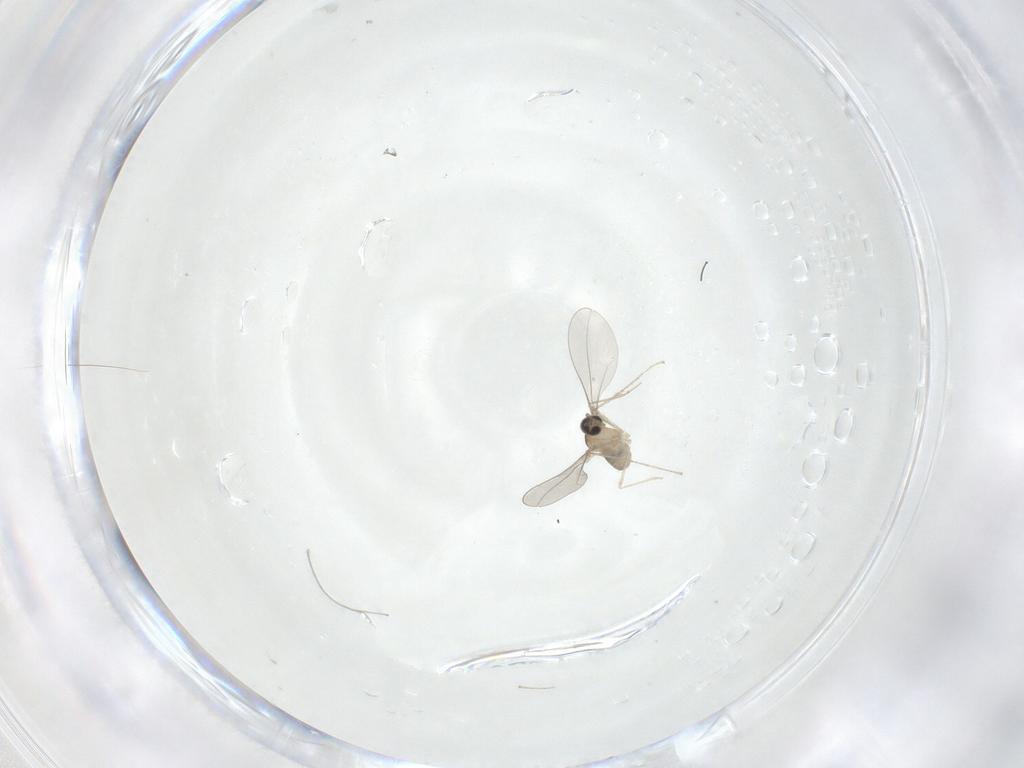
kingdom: Animalia
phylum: Arthropoda
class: Insecta
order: Diptera
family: Cecidomyiidae
